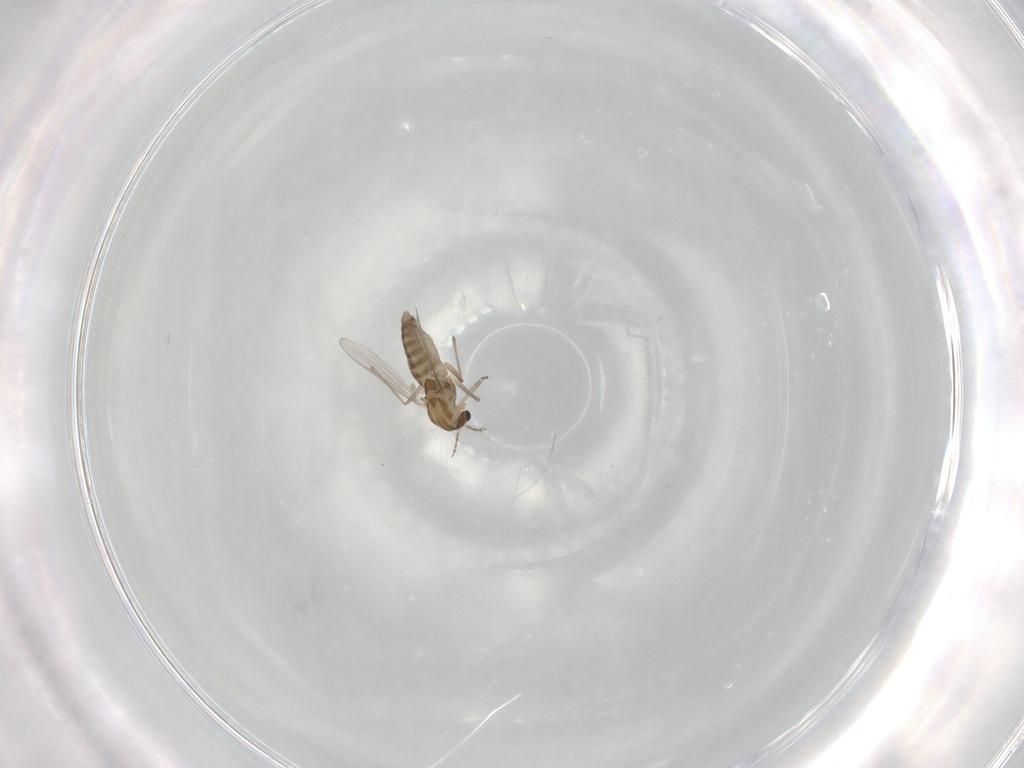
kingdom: Animalia
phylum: Arthropoda
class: Insecta
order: Diptera
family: Chironomidae
